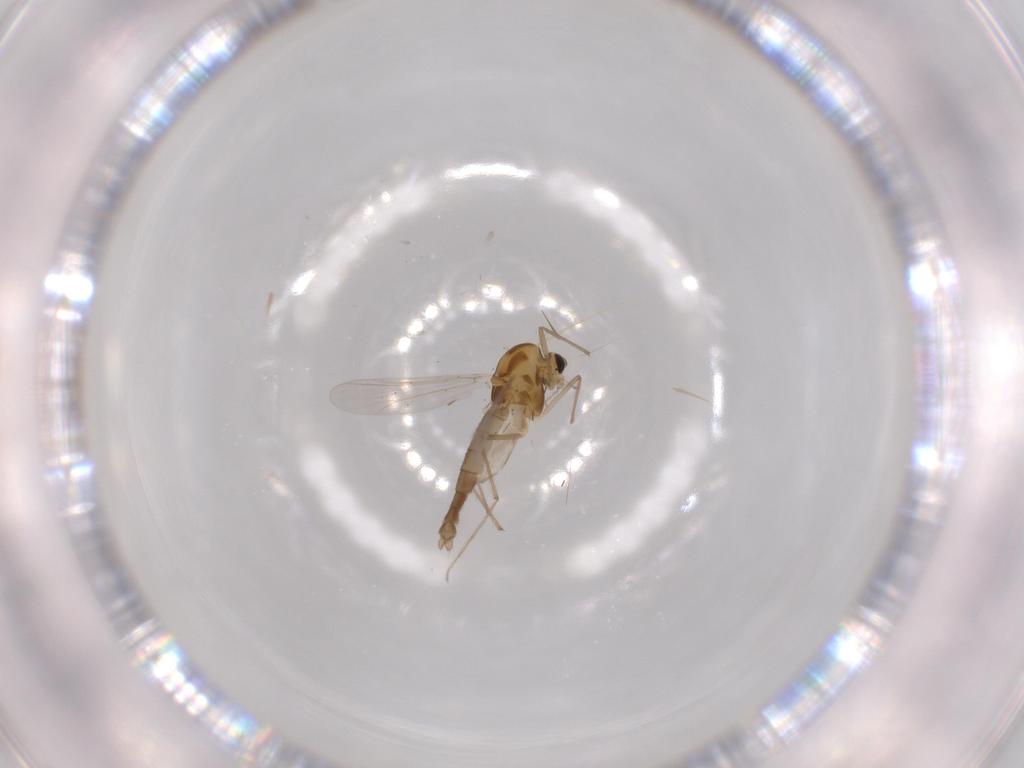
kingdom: Animalia
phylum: Arthropoda
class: Insecta
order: Diptera
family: Chironomidae
